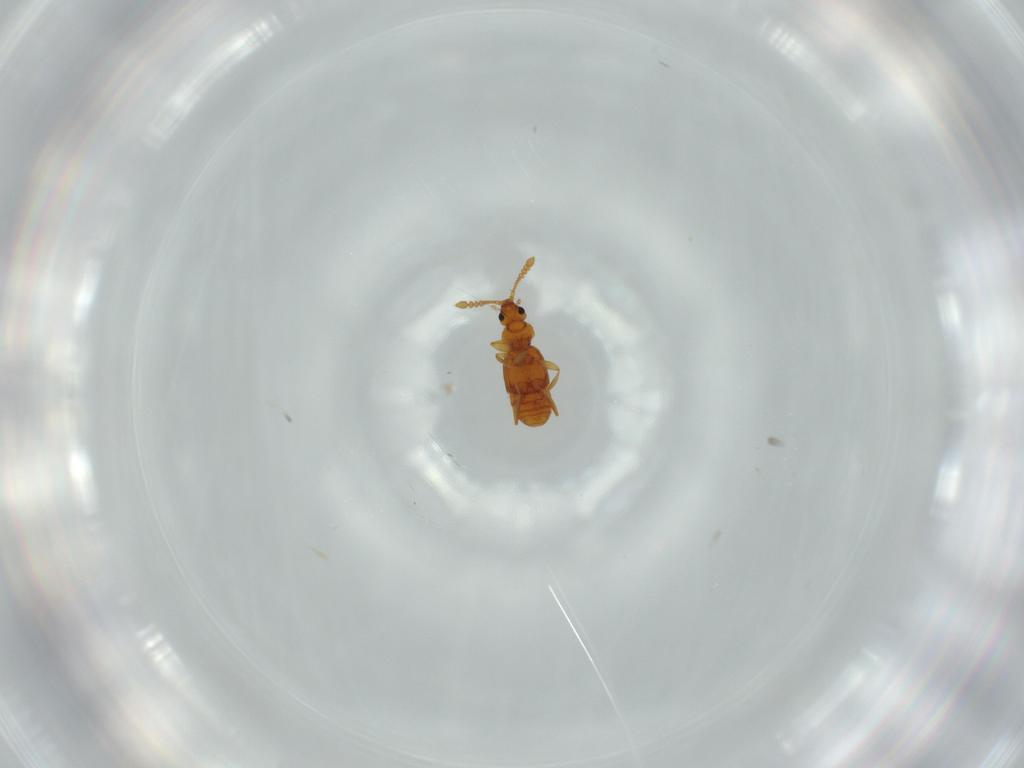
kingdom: Animalia
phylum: Arthropoda
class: Insecta
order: Coleoptera
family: Staphylinidae
